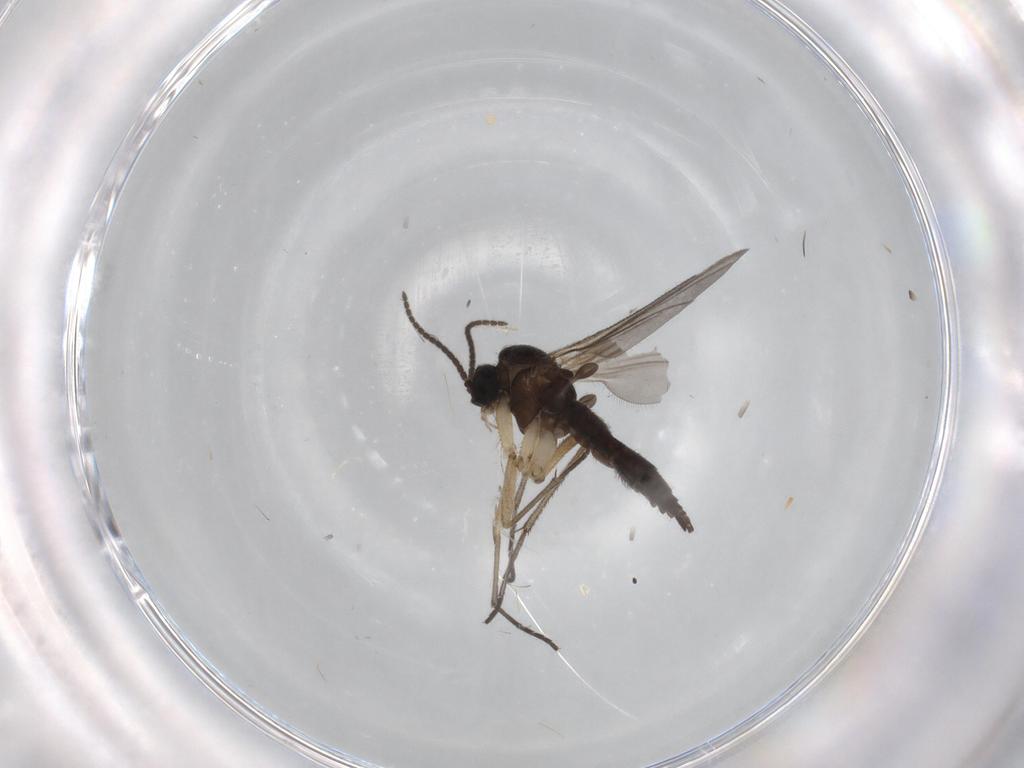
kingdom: Animalia
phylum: Arthropoda
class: Insecta
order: Diptera
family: Sciaridae
